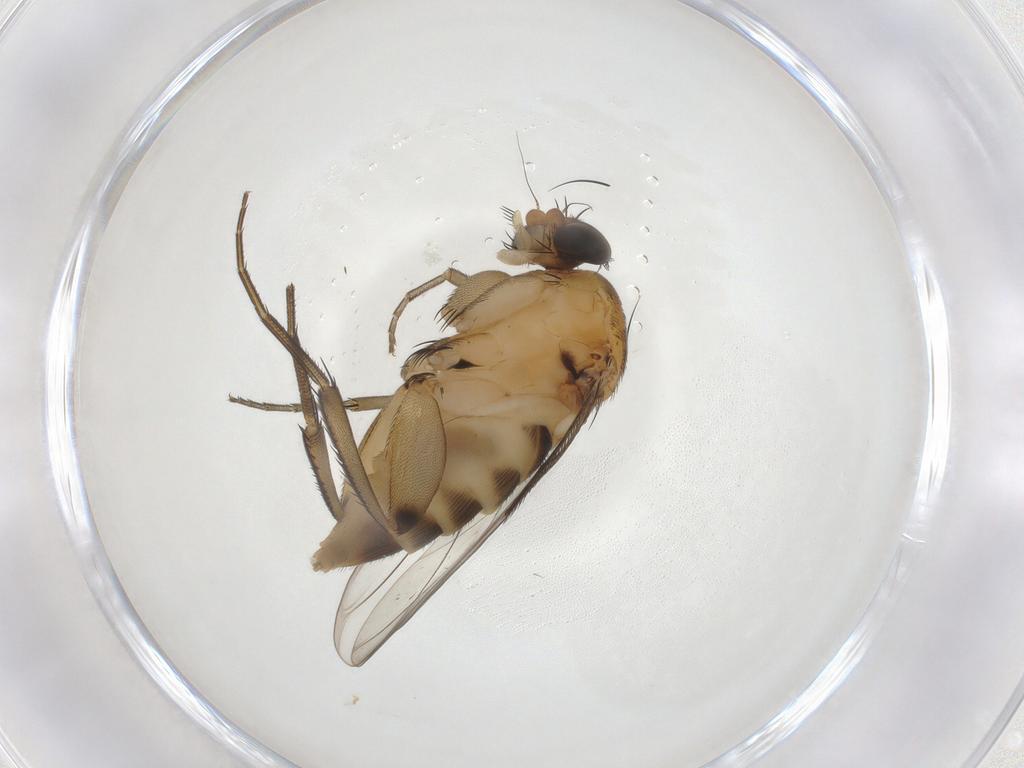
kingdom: Animalia
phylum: Arthropoda
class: Insecta
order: Diptera
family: Phoridae
